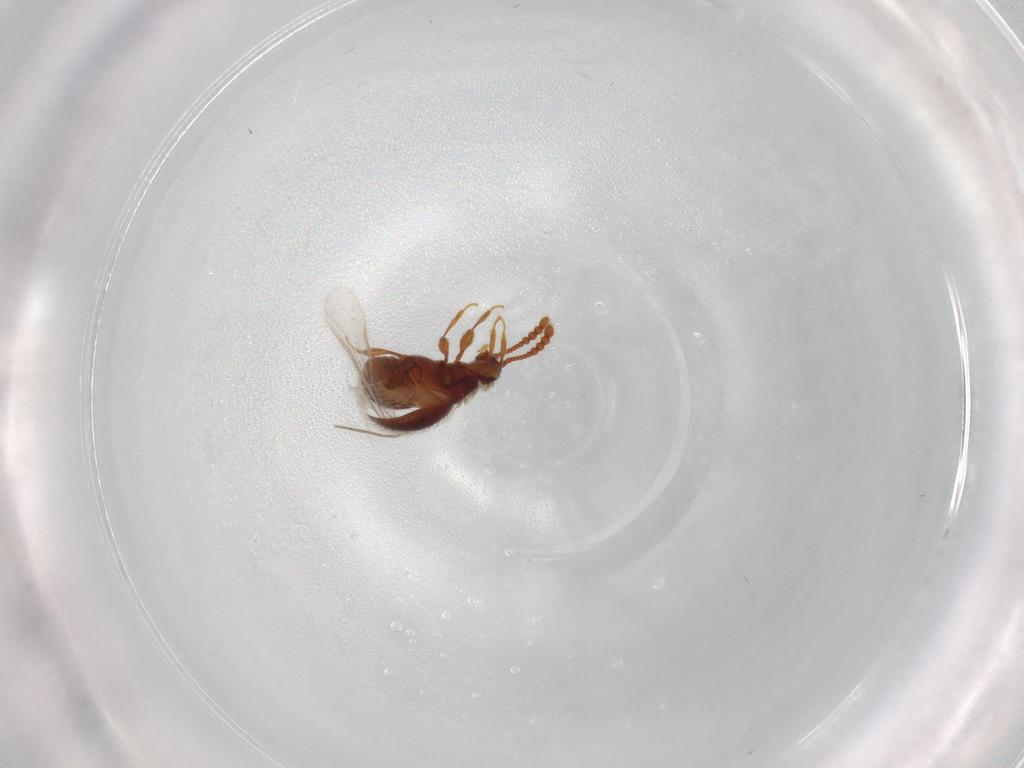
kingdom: Animalia
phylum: Arthropoda
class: Insecta
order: Coleoptera
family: Staphylinidae
